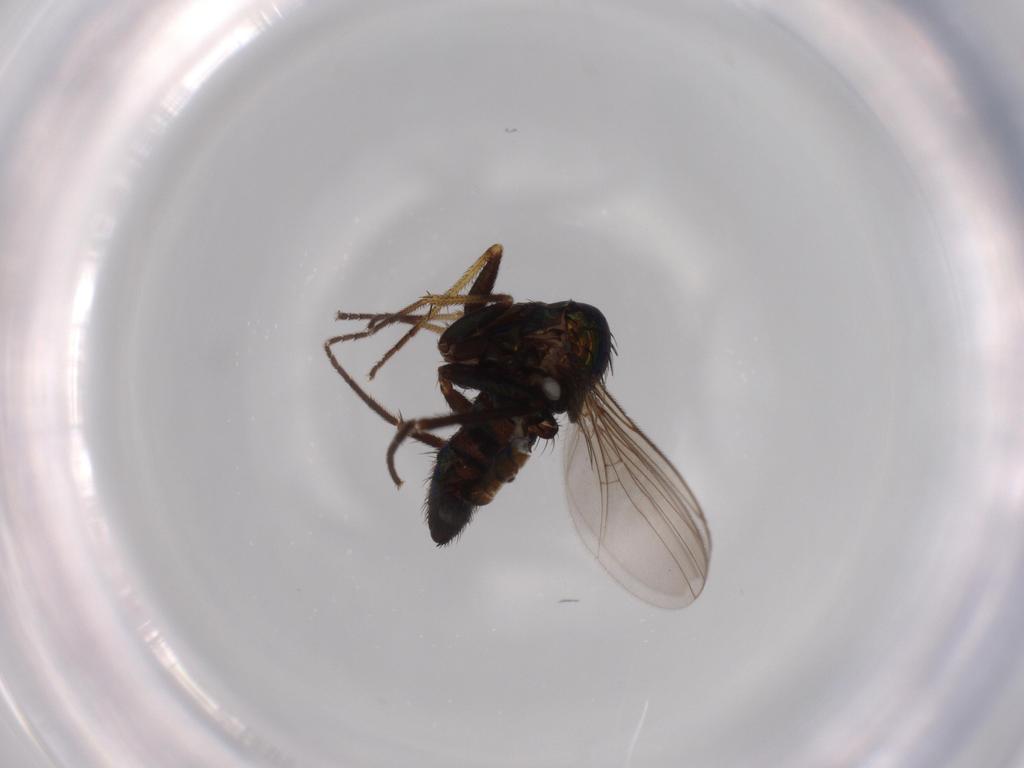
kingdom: Animalia
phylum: Arthropoda
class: Insecta
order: Diptera
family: Dolichopodidae
